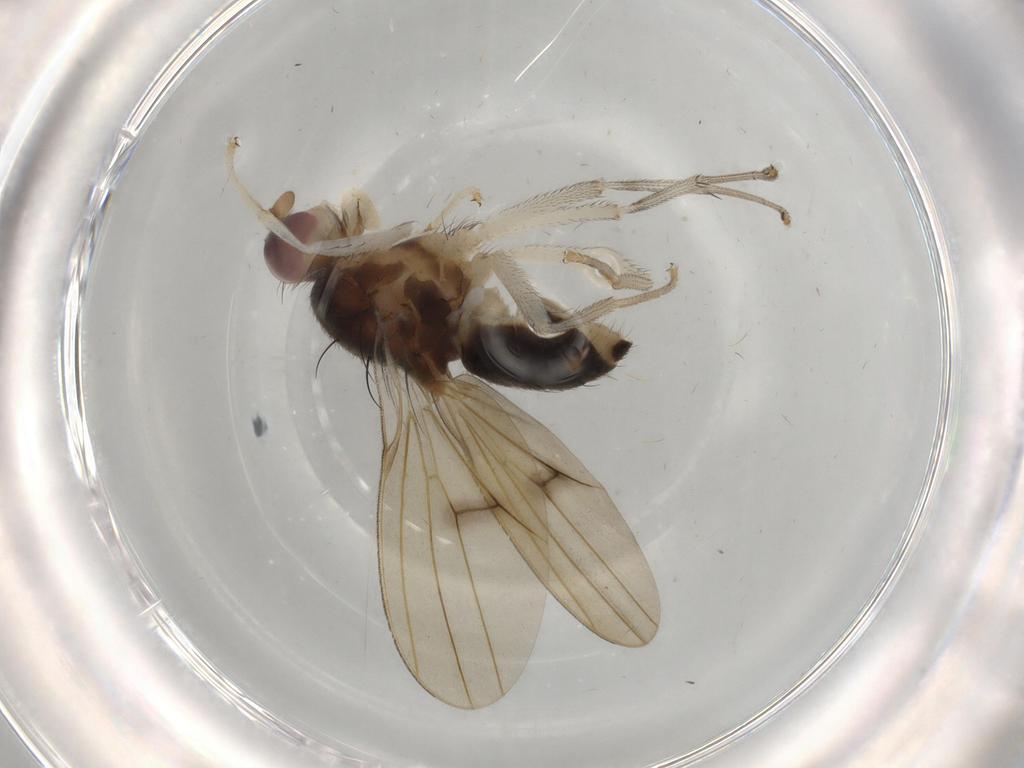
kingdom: Animalia
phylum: Arthropoda
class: Insecta
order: Diptera
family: Lauxaniidae
